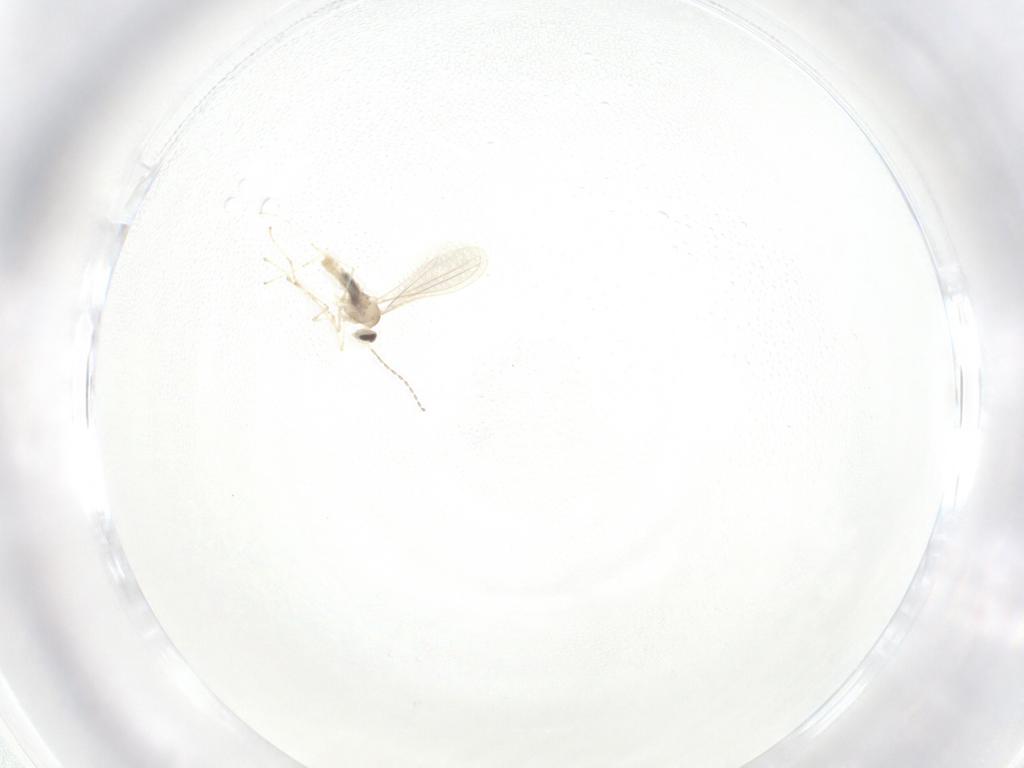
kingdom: Animalia
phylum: Arthropoda
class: Insecta
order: Diptera
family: Cecidomyiidae
